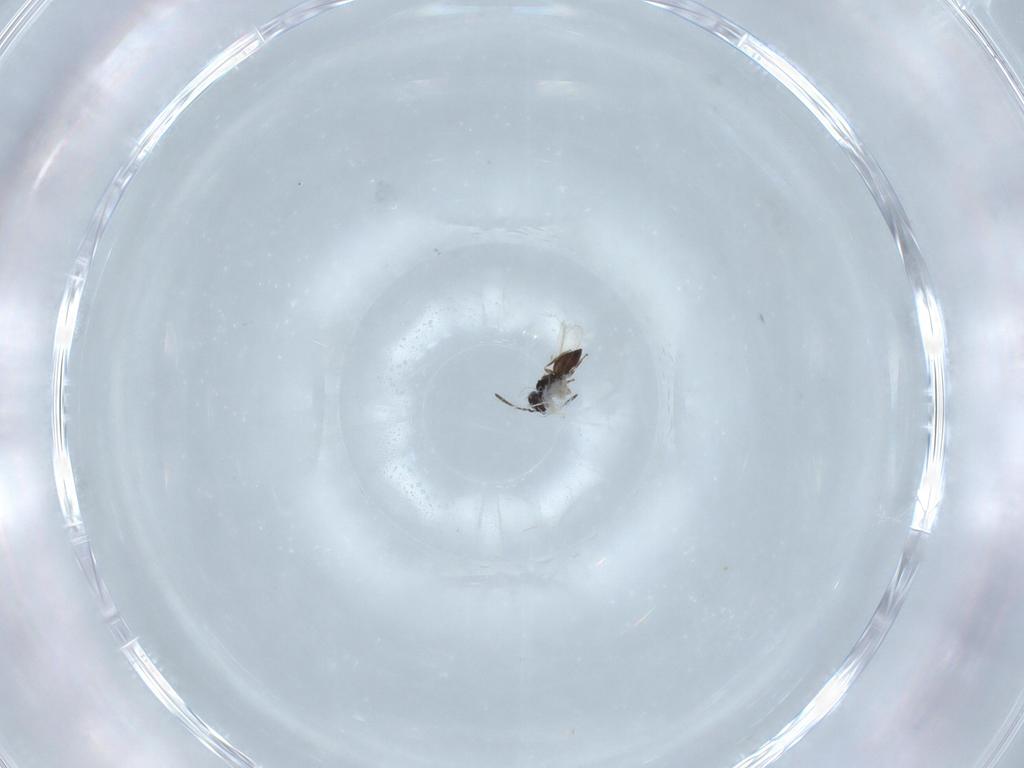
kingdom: Animalia
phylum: Arthropoda
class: Insecta
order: Hymenoptera
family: Scelionidae
